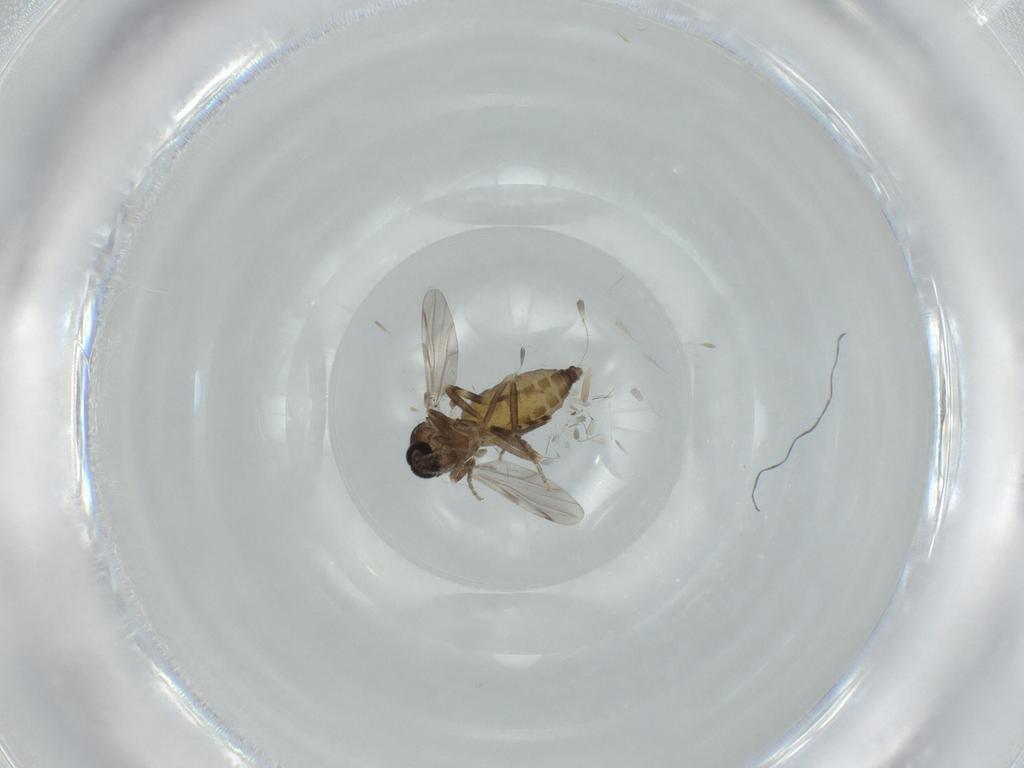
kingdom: Animalia
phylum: Arthropoda
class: Insecta
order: Diptera
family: Ceratopogonidae
